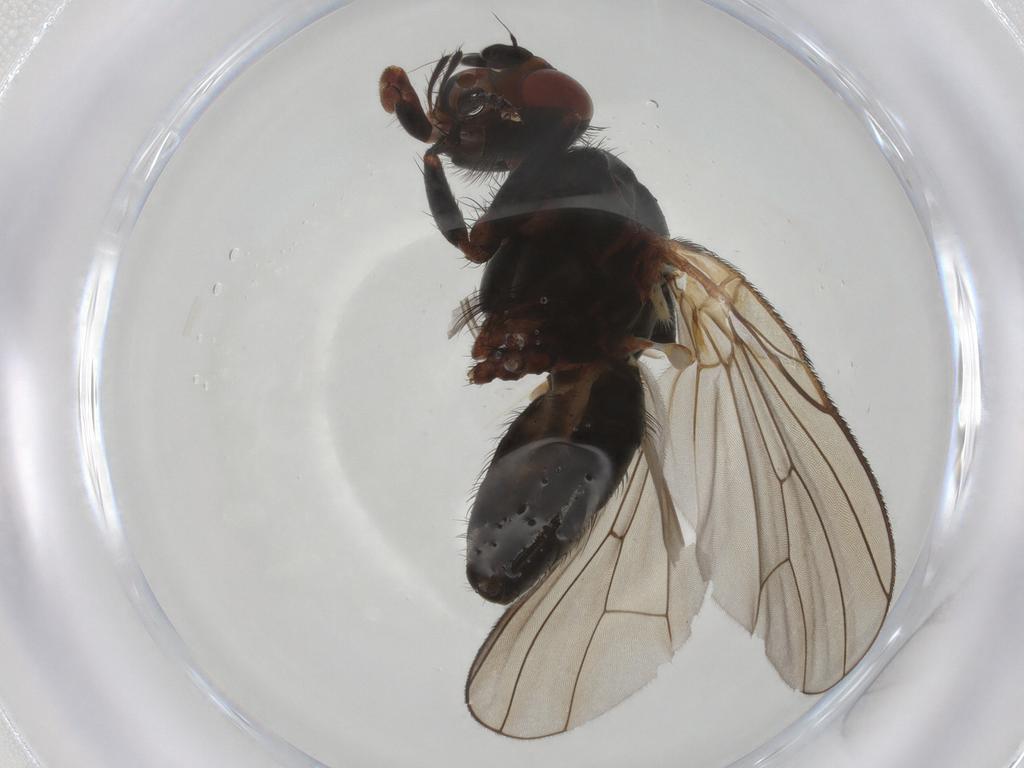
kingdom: Animalia
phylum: Arthropoda
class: Insecta
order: Diptera
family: Anthomyiidae
